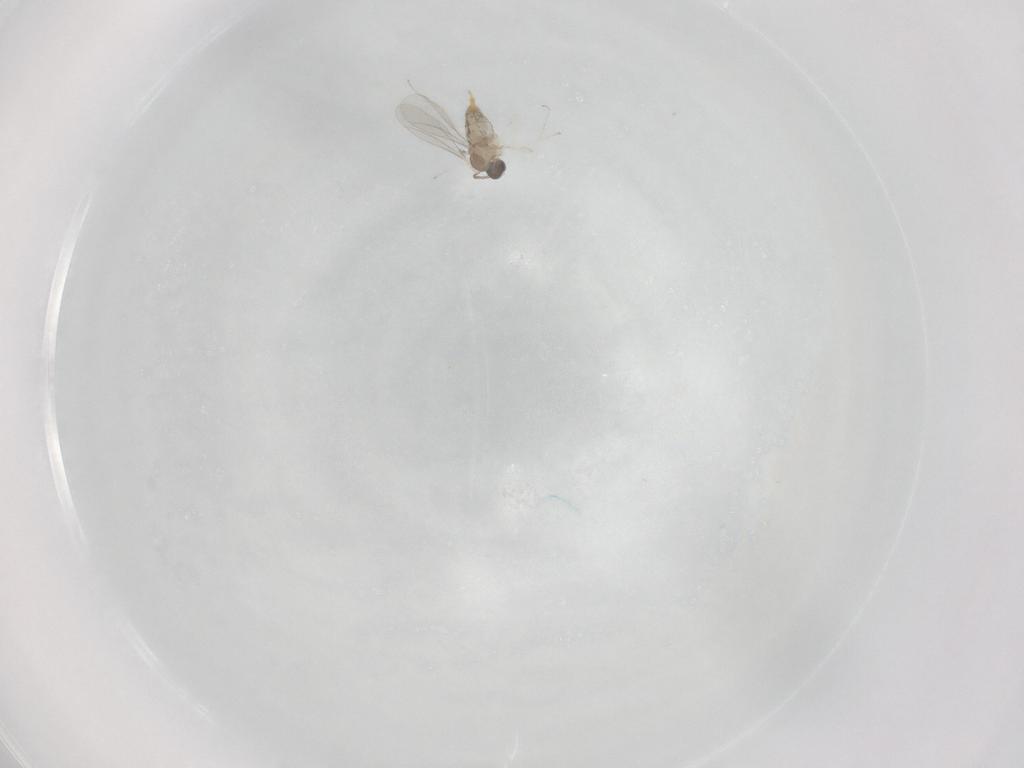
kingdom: Animalia
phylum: Arthropoda
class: Insecta
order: Diptera
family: Cecidomyiidae
